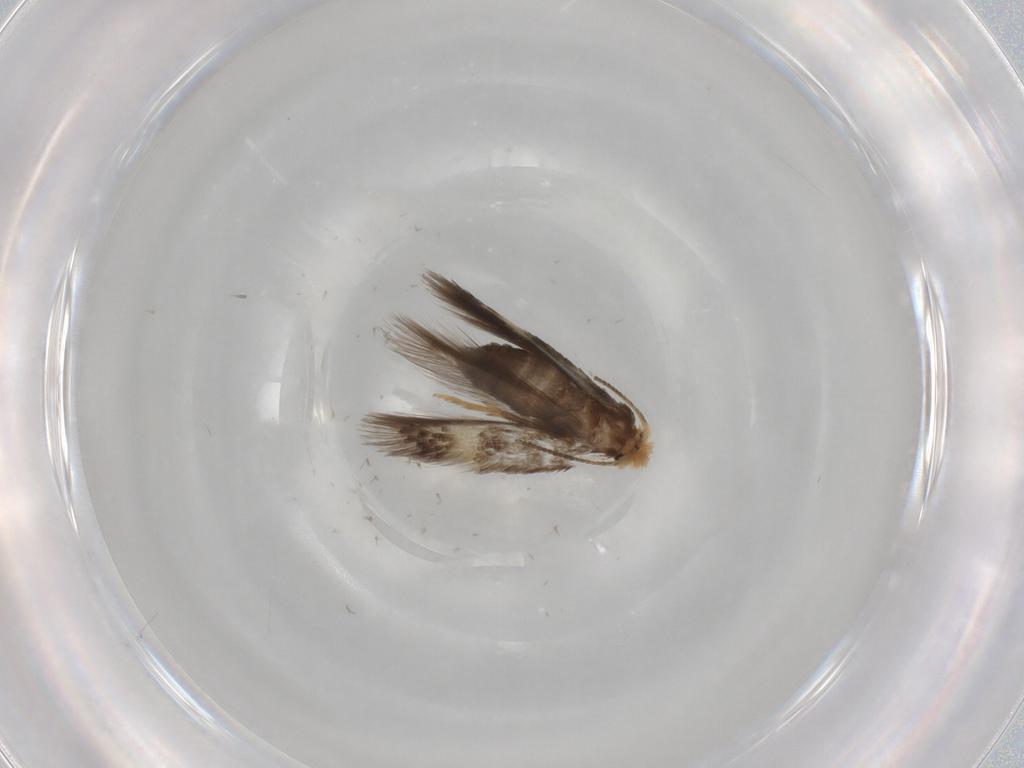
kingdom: Animalia
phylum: Arthropoda
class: Insecta
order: Lepidoptera
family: Nepticulidae
